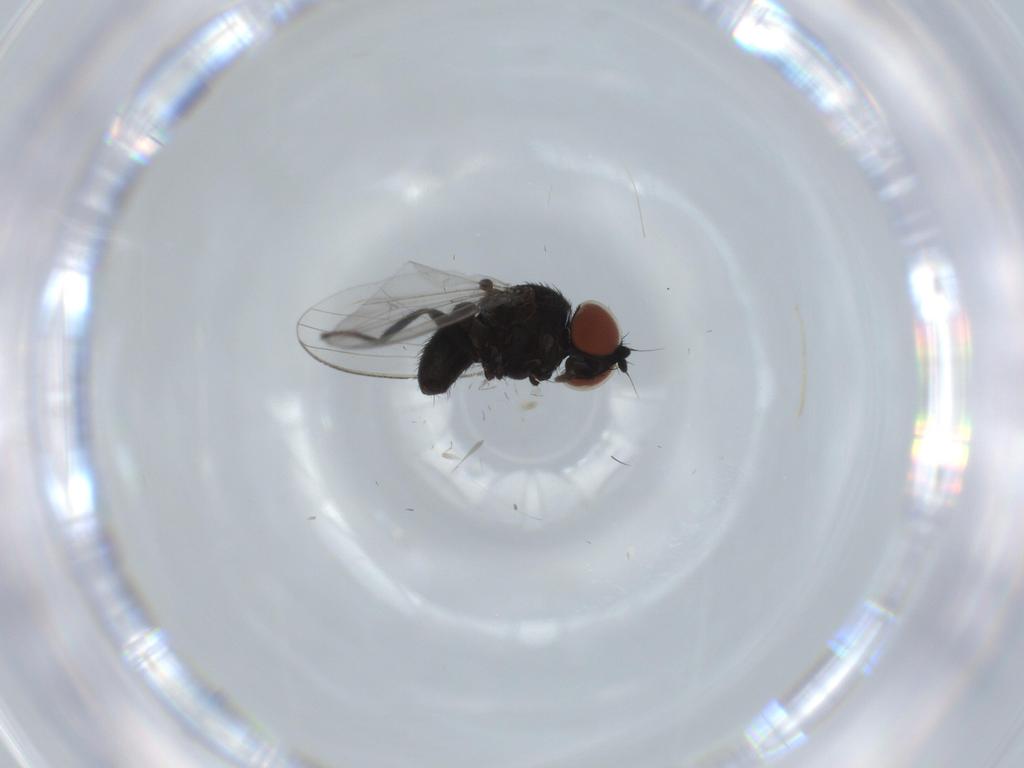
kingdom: Animalia
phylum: Arthropoda
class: Insecta
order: Diptera
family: Milichiidae
